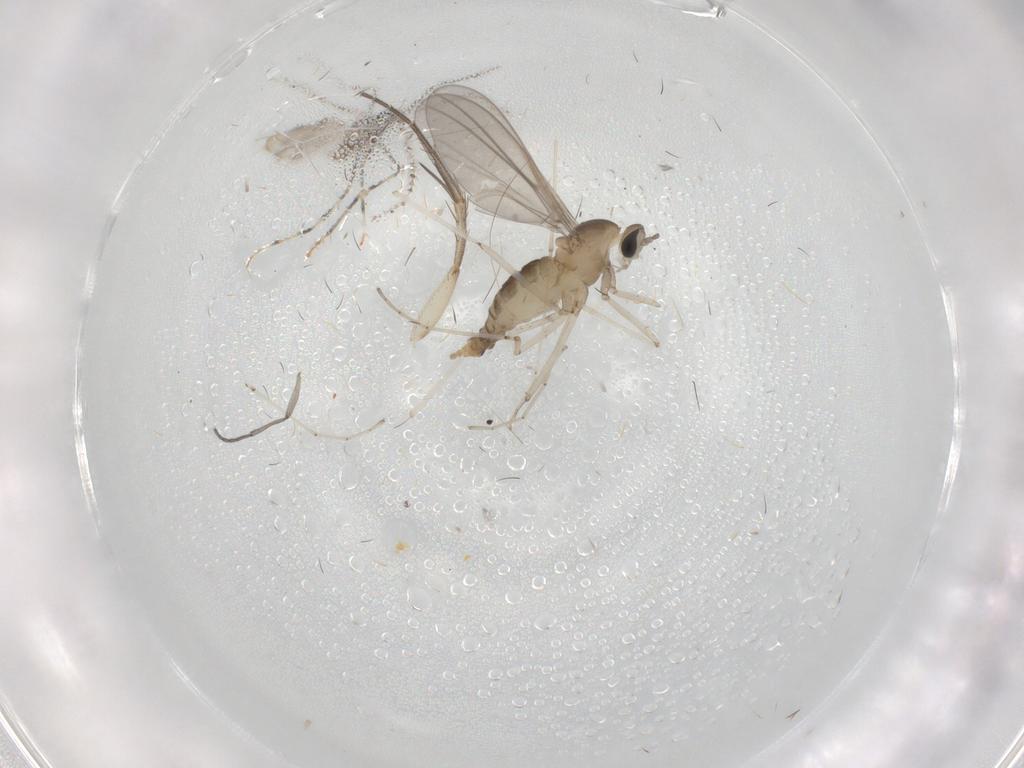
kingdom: Animalia
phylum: Arthropoda
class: Insecta
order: Diptera
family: Cecidomyiidae
